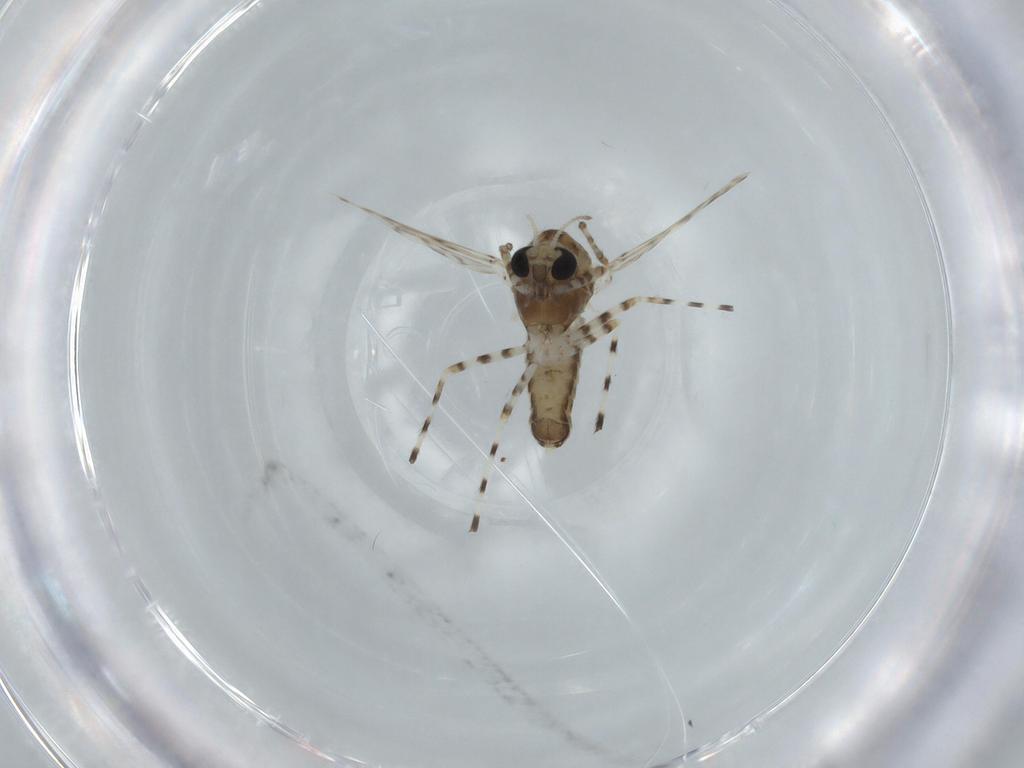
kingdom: Animalia
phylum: Arthropoda
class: Insecta
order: Diptera
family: Chironomidae
